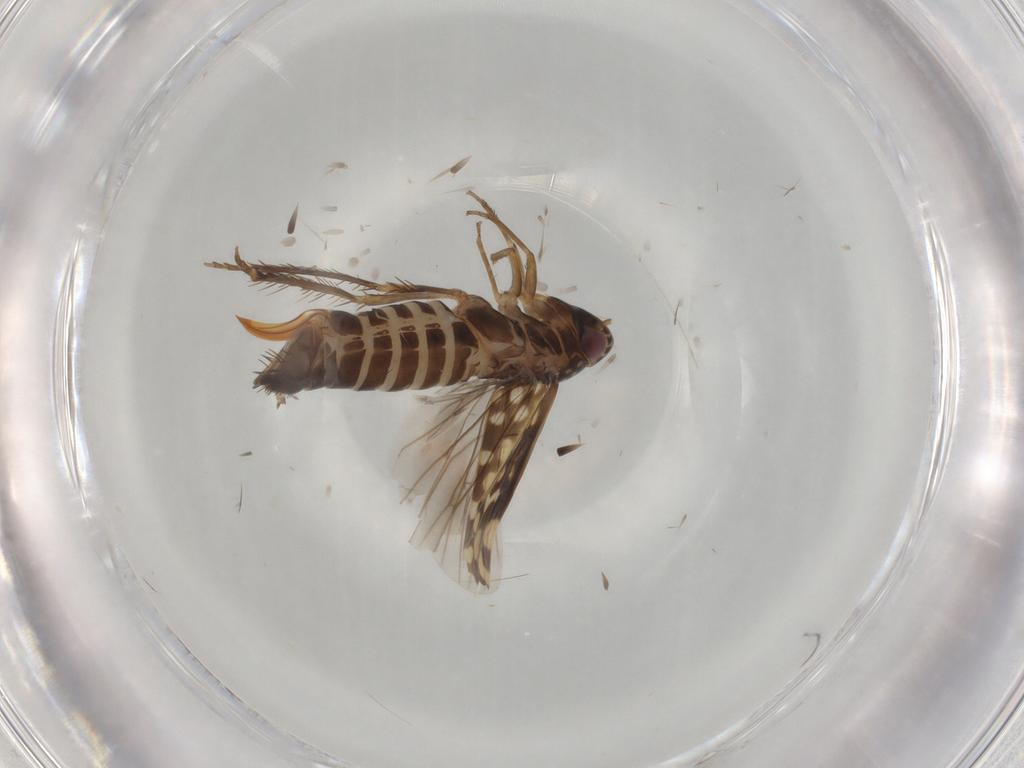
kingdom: Animalia
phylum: Arthropoda
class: Insecta
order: Hemiptera
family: Cicadellidae
